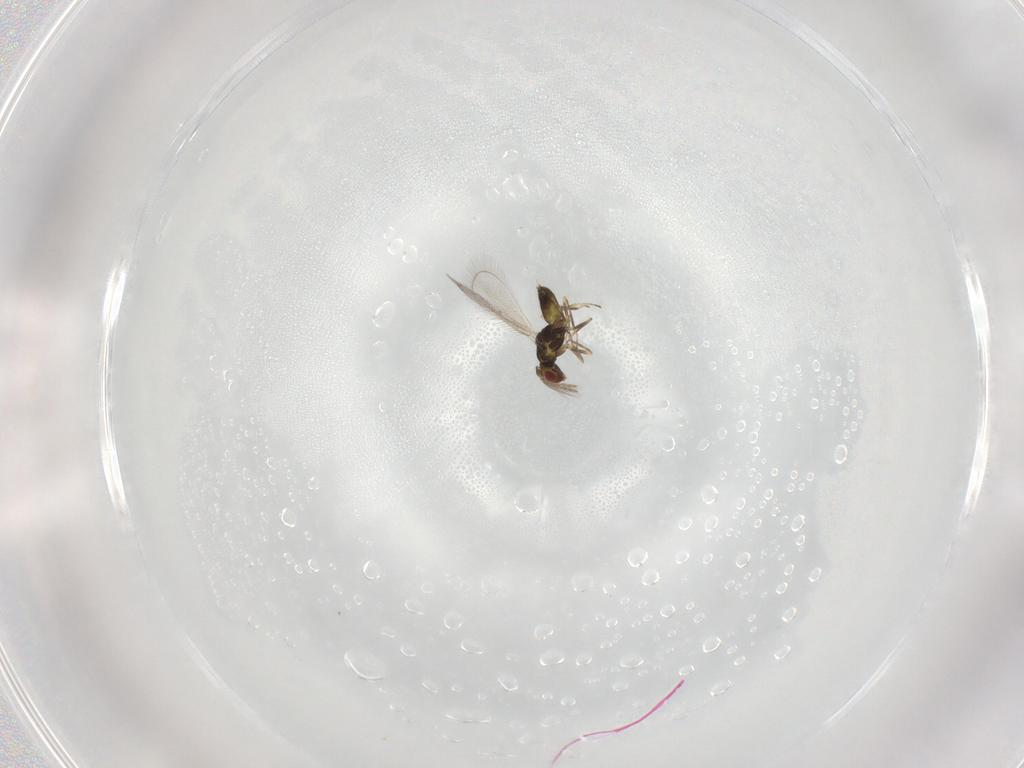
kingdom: Animalia
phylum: Arthropoda
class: Insecta
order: Hymenoptera
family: Eulophidae
